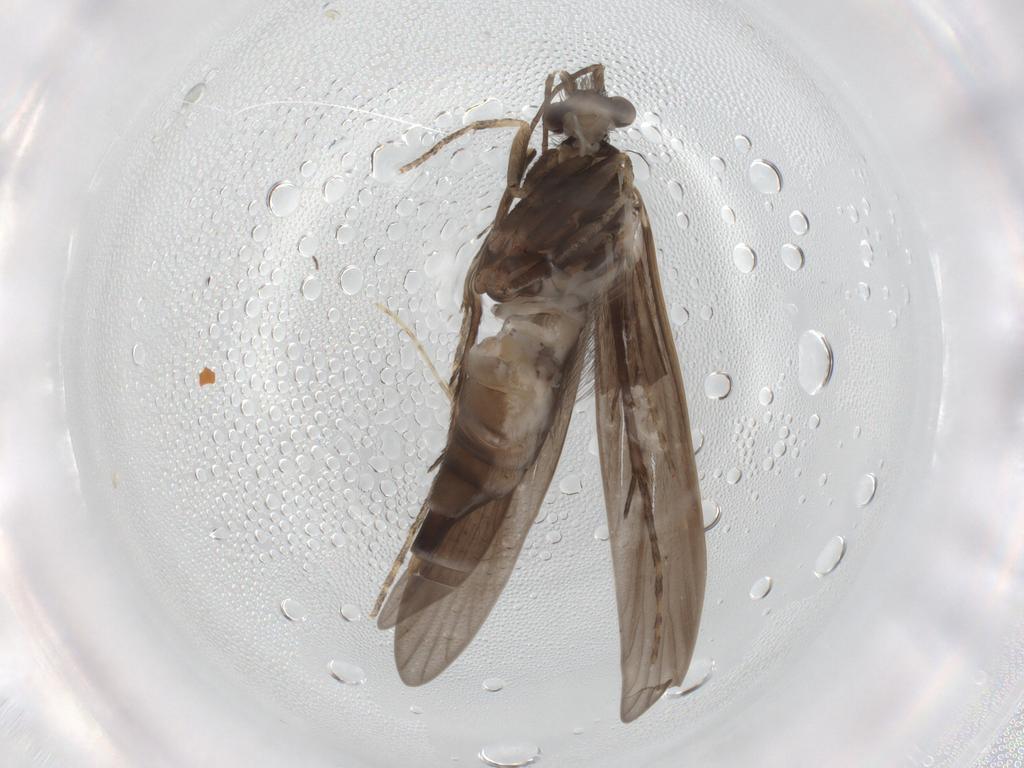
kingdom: Animalia
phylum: Arthropoda
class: Insecta
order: Trichoptera
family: Xiphocentronidae
